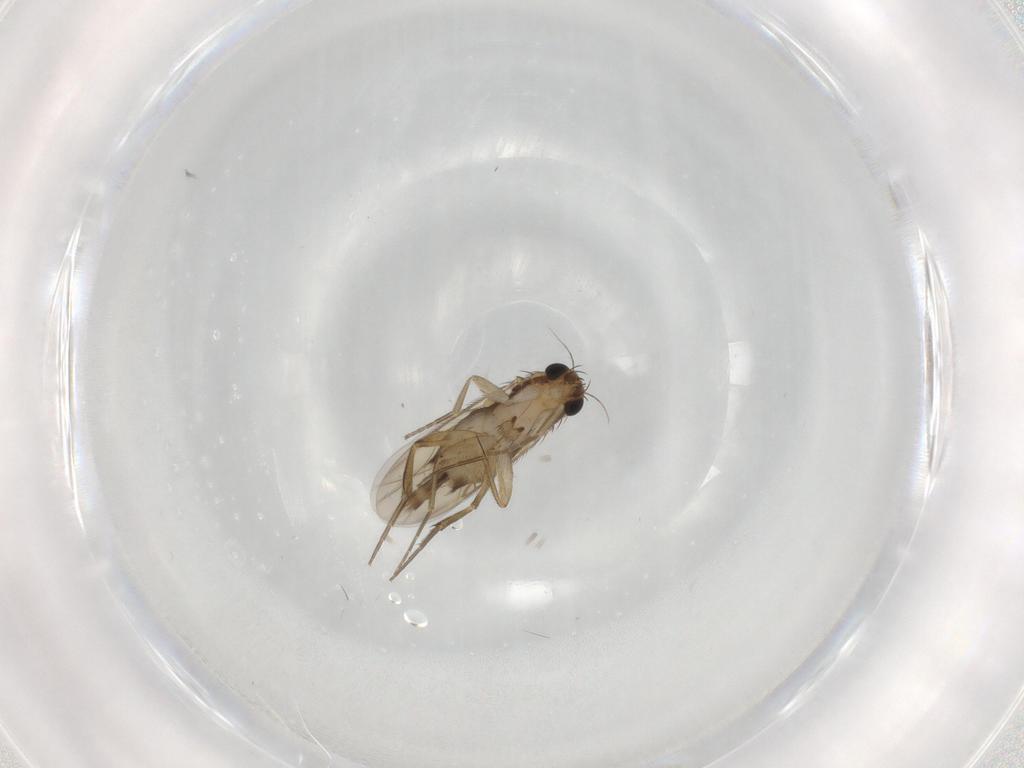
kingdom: Animalia
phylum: Arthropoda
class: Insecta
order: Diptera
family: Phoridae
